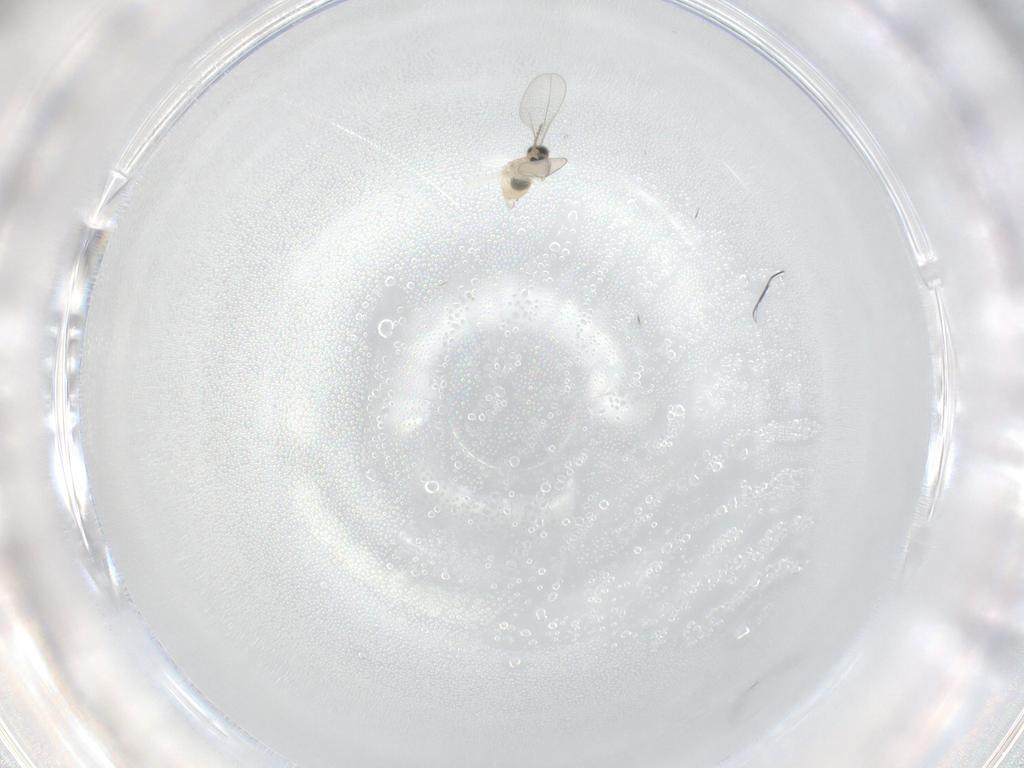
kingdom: Animalia
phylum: Arthropoda
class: Insecta
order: Diptera
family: Cecidomyiidae
